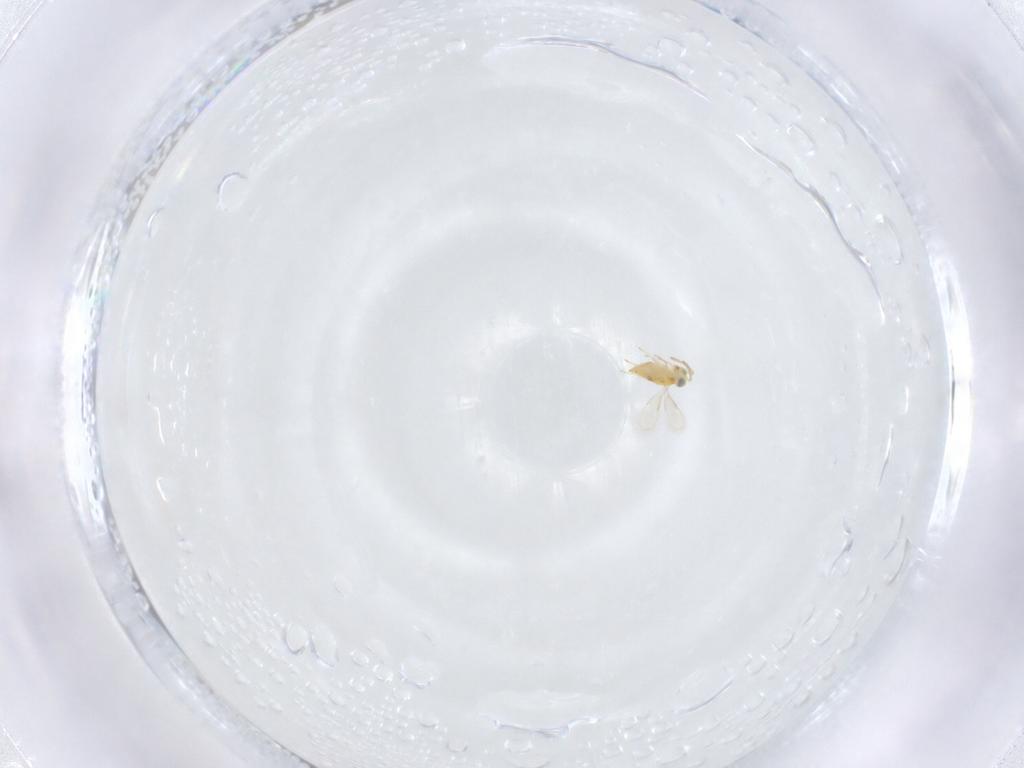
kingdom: Animalia
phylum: Arthropoda
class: Insecta
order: Hymenoptera
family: Aphelinidae
